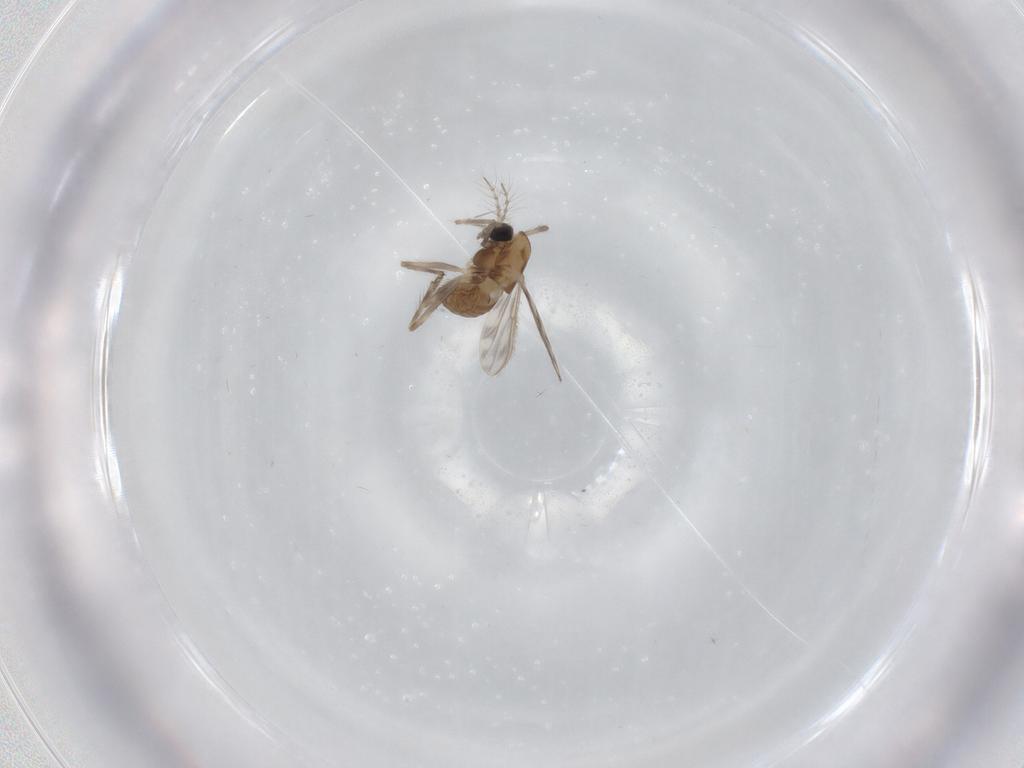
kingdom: Animalia
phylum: Arthropoda
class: Insecta
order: Diptera
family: Chironomidae
